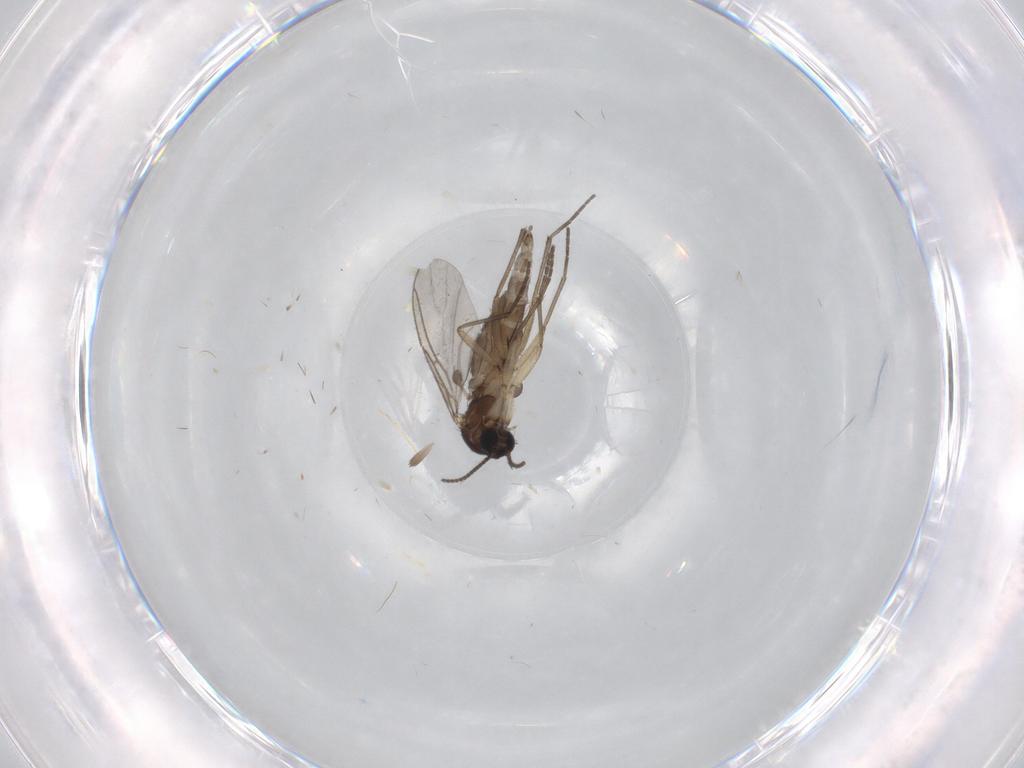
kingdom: Animalia
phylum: Arthropoda
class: Insecta
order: Diptera
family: Sciaridae
